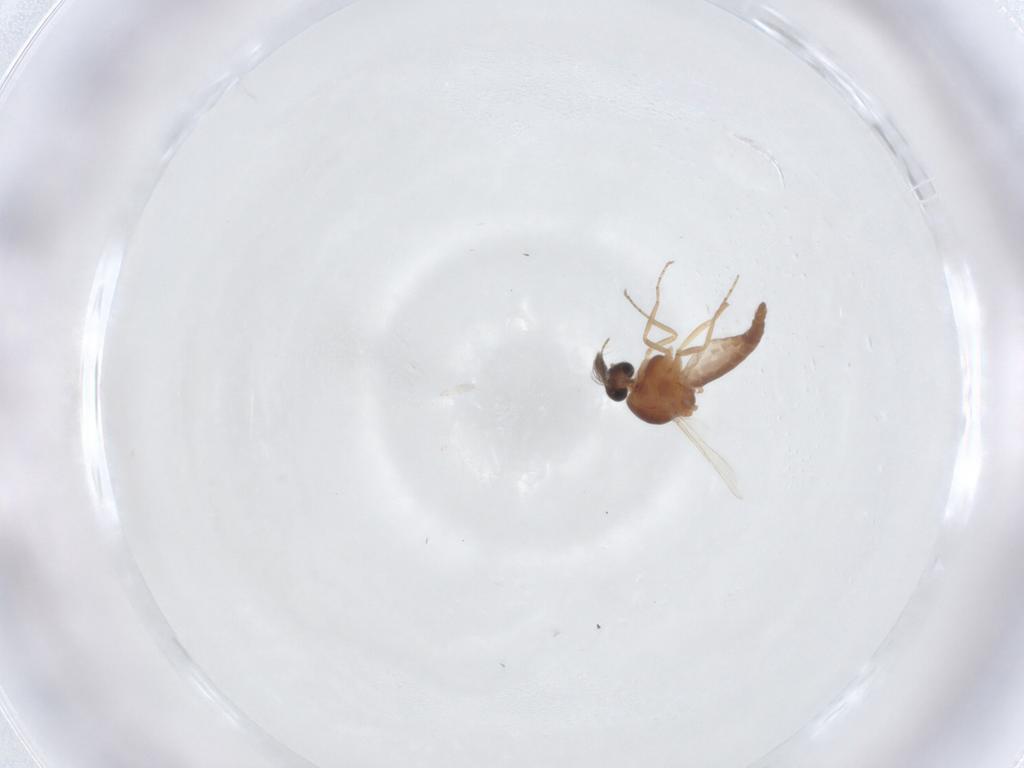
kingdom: Animalia
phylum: Arthropoda
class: Insecta
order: Diptera
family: Ceratopogonidae
